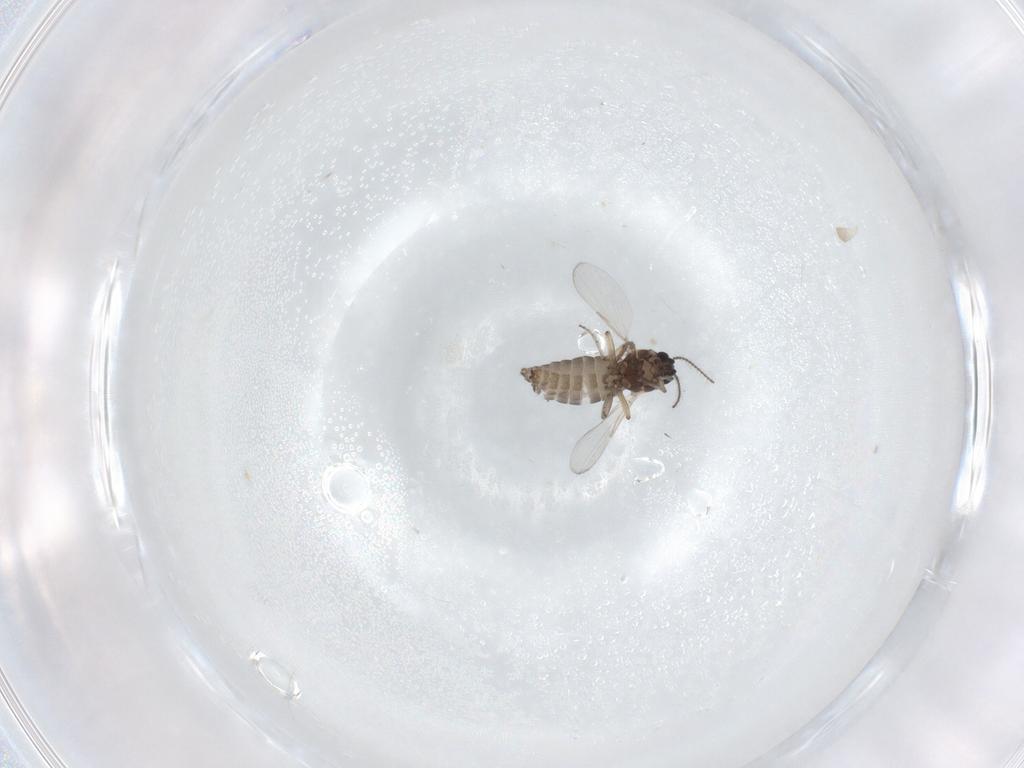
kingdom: Animalia
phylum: Arthropoda
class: Insecta
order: Diptera
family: Ceratopogonidae
